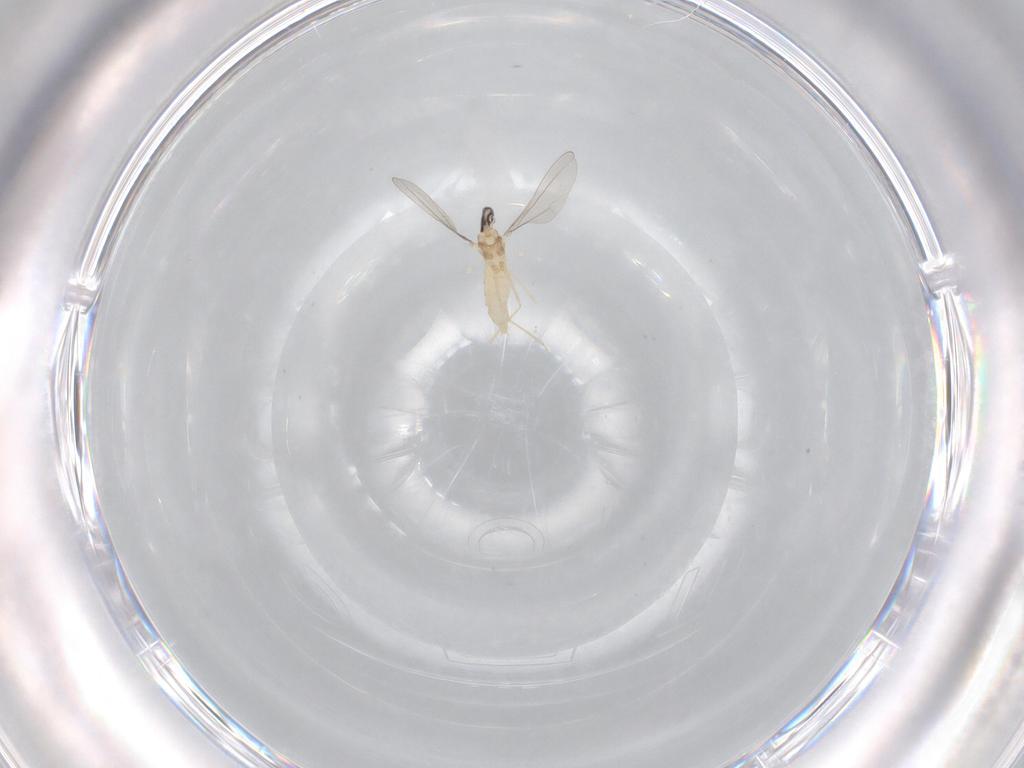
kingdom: Animalia
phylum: Arthropoda
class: Insecta
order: Diptera
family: Cecidomyiidae
